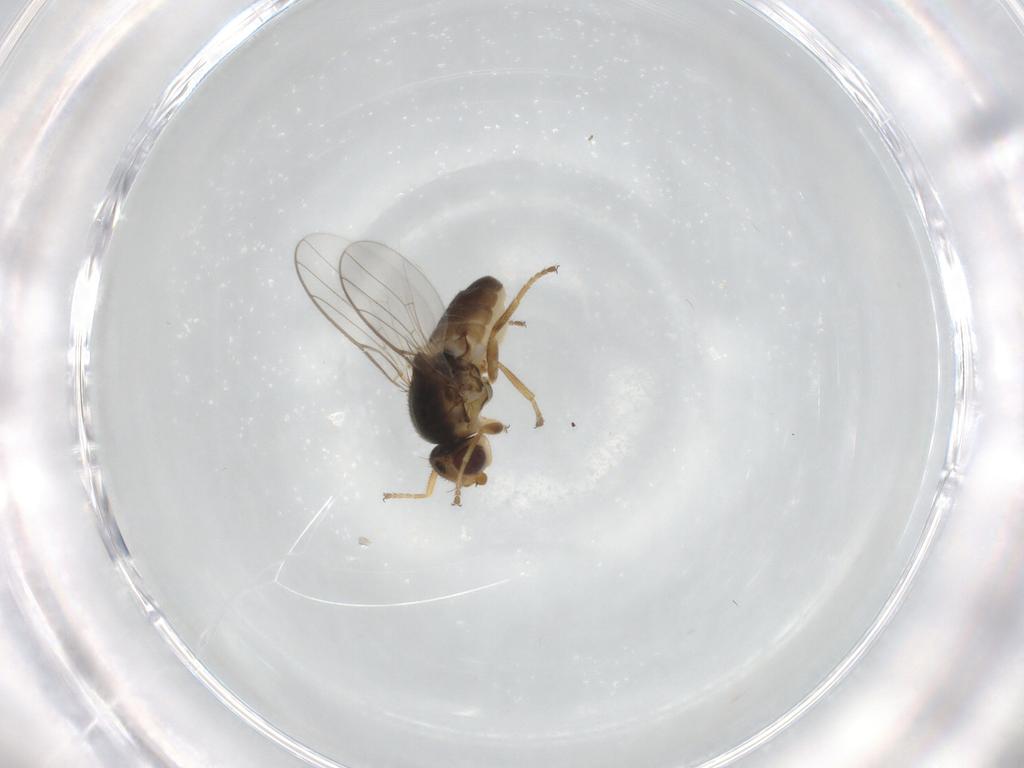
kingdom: Animalia
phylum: Arthropoda
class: Insecta
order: Diptera
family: Chloropidae
